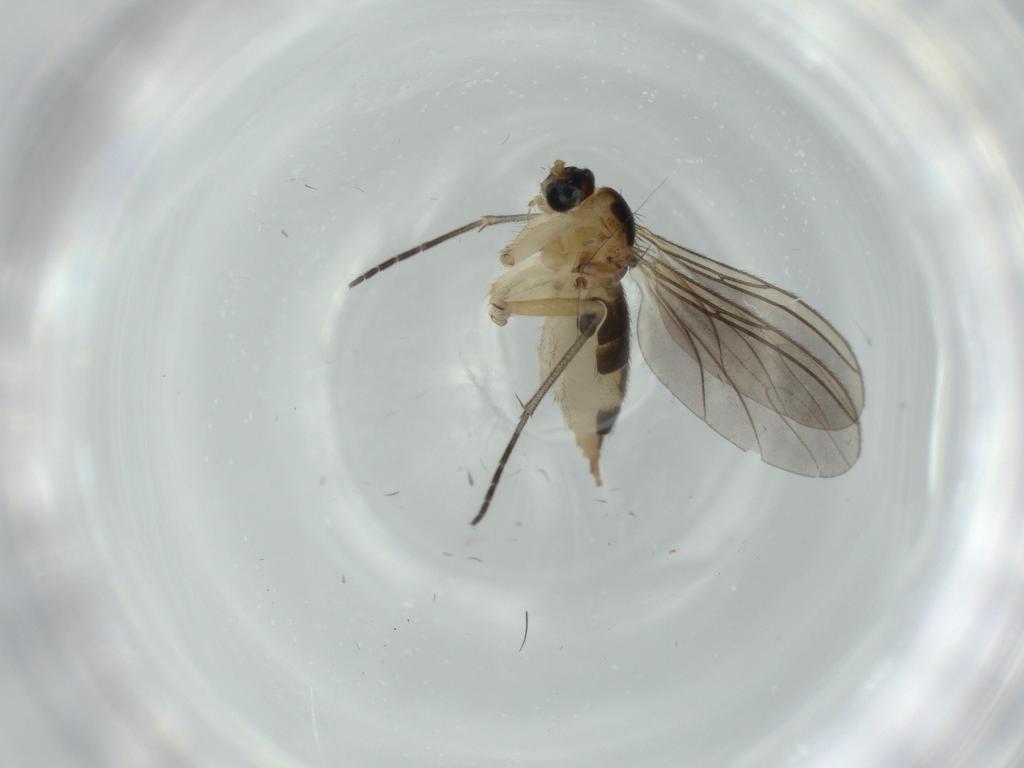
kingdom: Animalia
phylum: Arthropoda
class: Insecta
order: Diptera
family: Sciaridae
